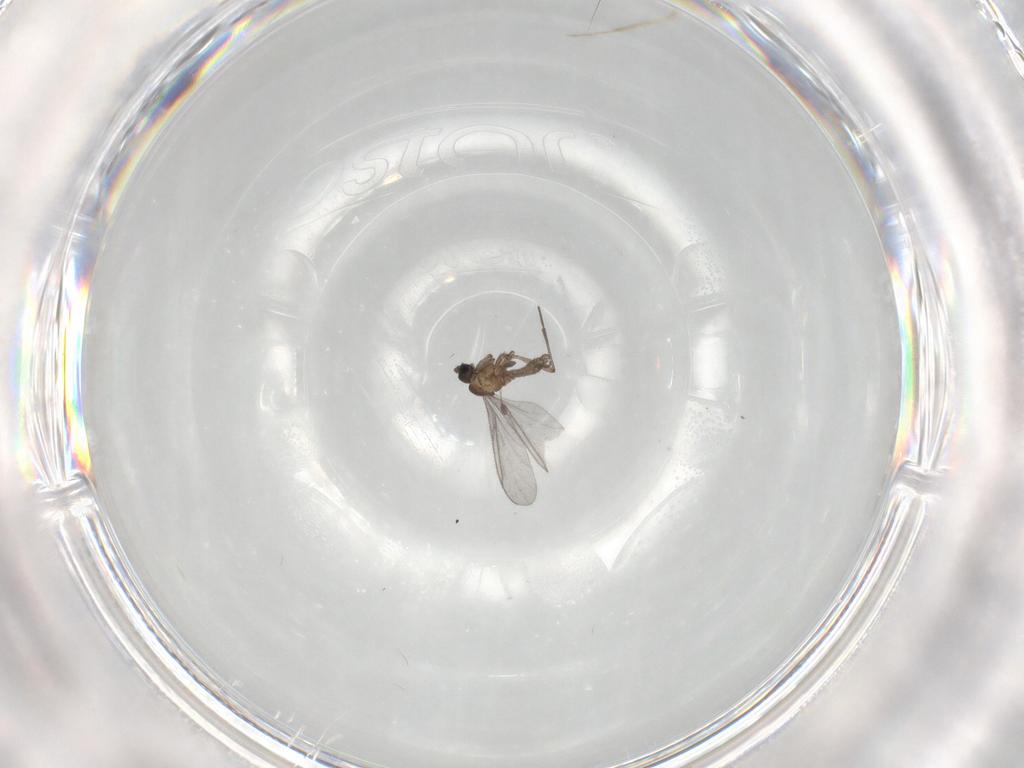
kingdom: Animalia
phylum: Arthropoda
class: Insecta
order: Diptera
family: Sciaridae
